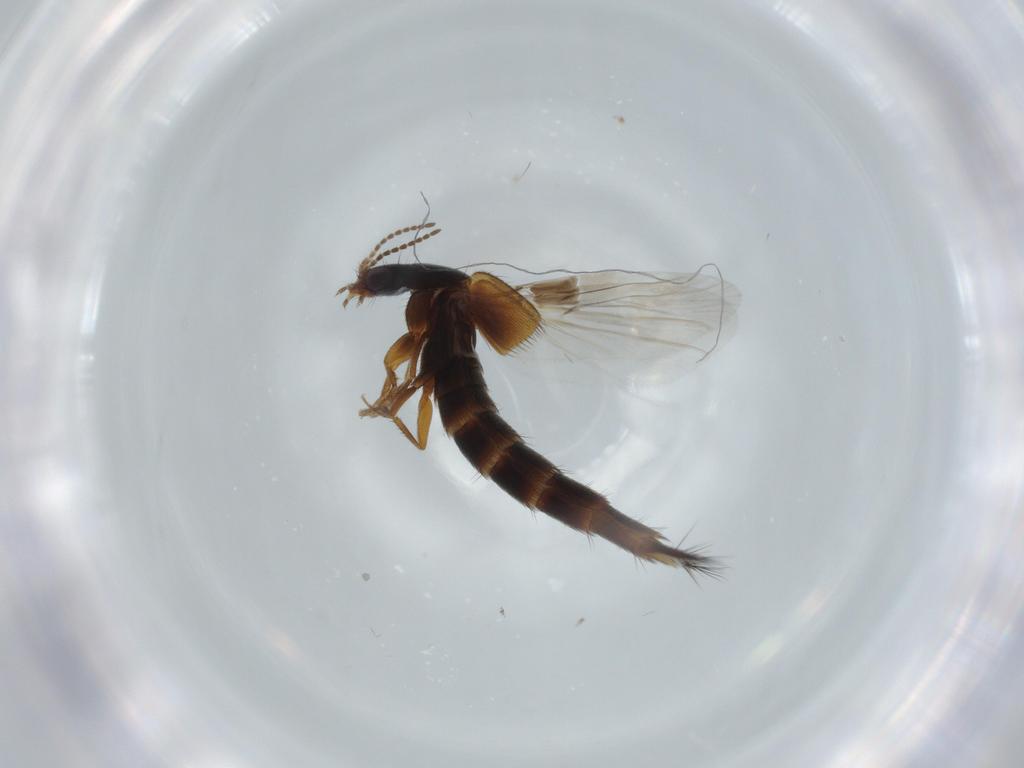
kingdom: Animalia
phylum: Arthropoda
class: Insecta
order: Coleoptera
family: Staphylinidae
